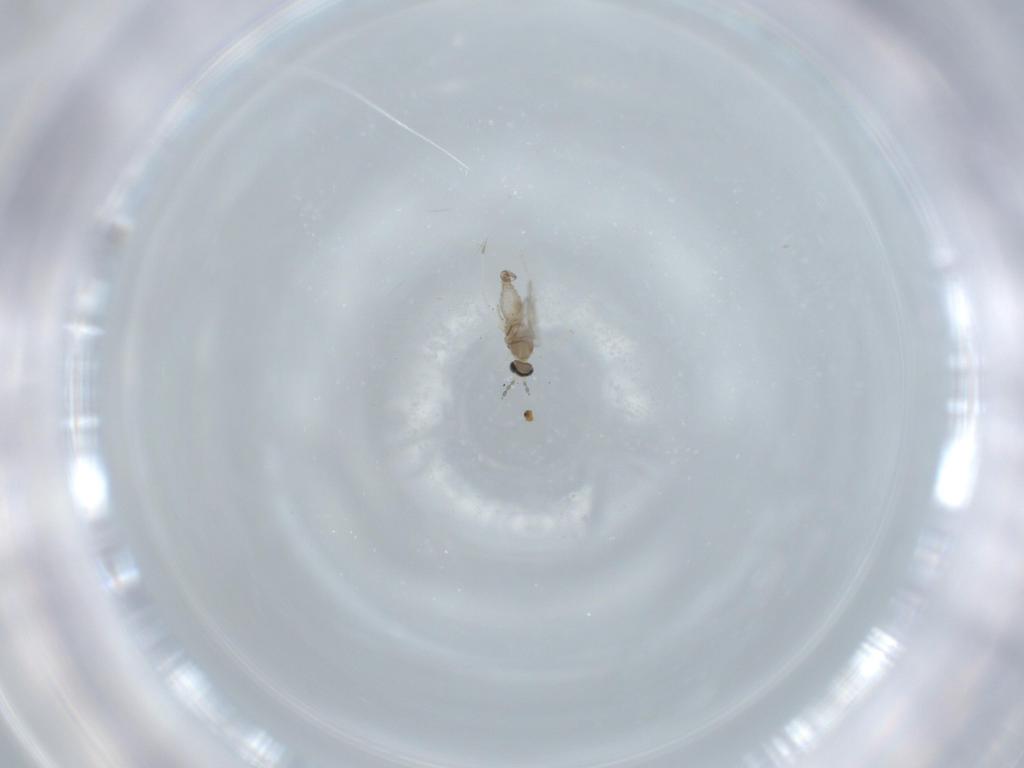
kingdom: Animalia
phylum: Arthropoda
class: Insecta
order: Diptera
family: Cecidomyiidae
